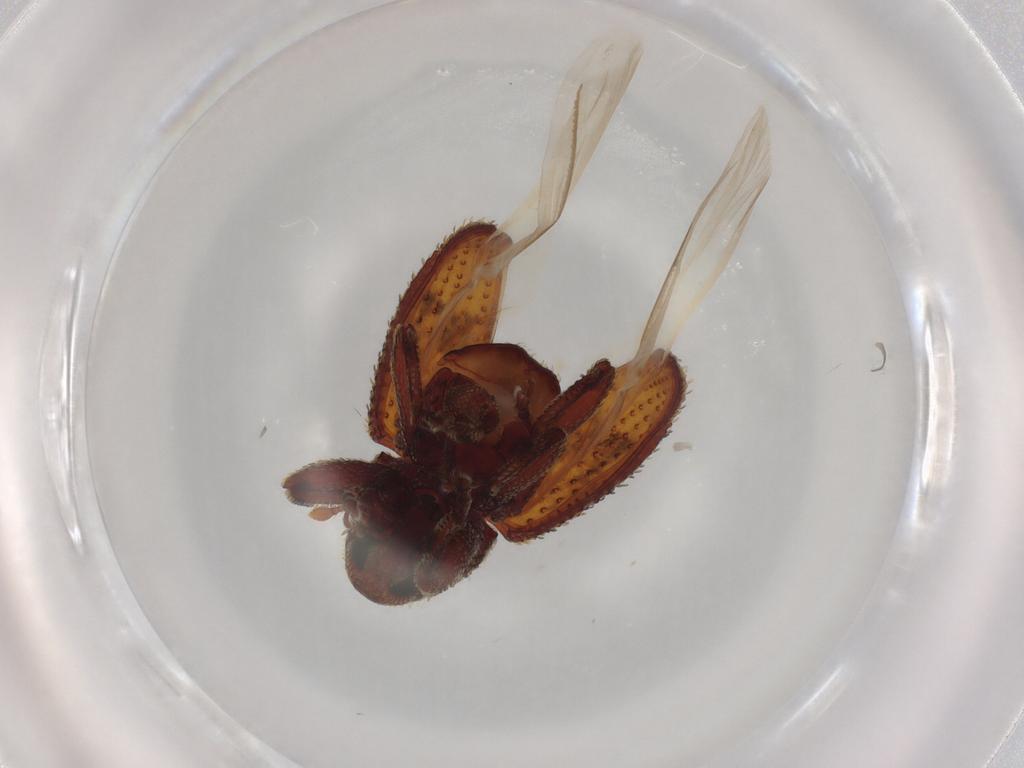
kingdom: Animalia
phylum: Arthropoda
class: Insecta
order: Coleoptera
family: Curculionidae
